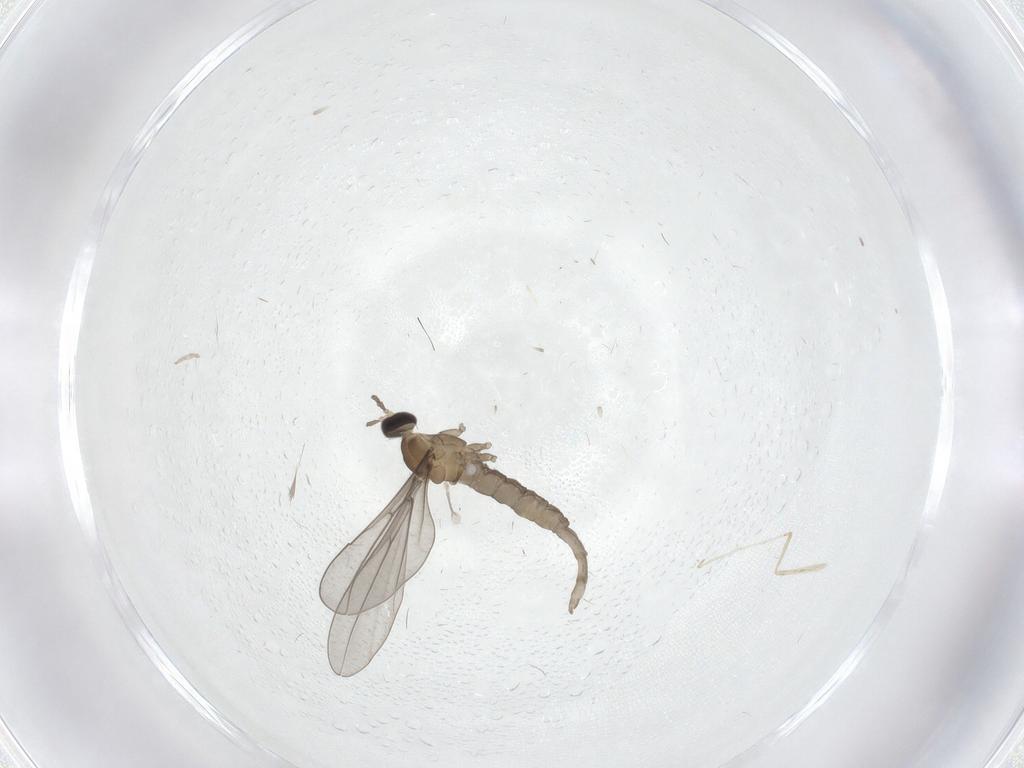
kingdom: Animalia
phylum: Arthropoda
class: Insecta
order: Diptera
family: Cecidomyiidae
